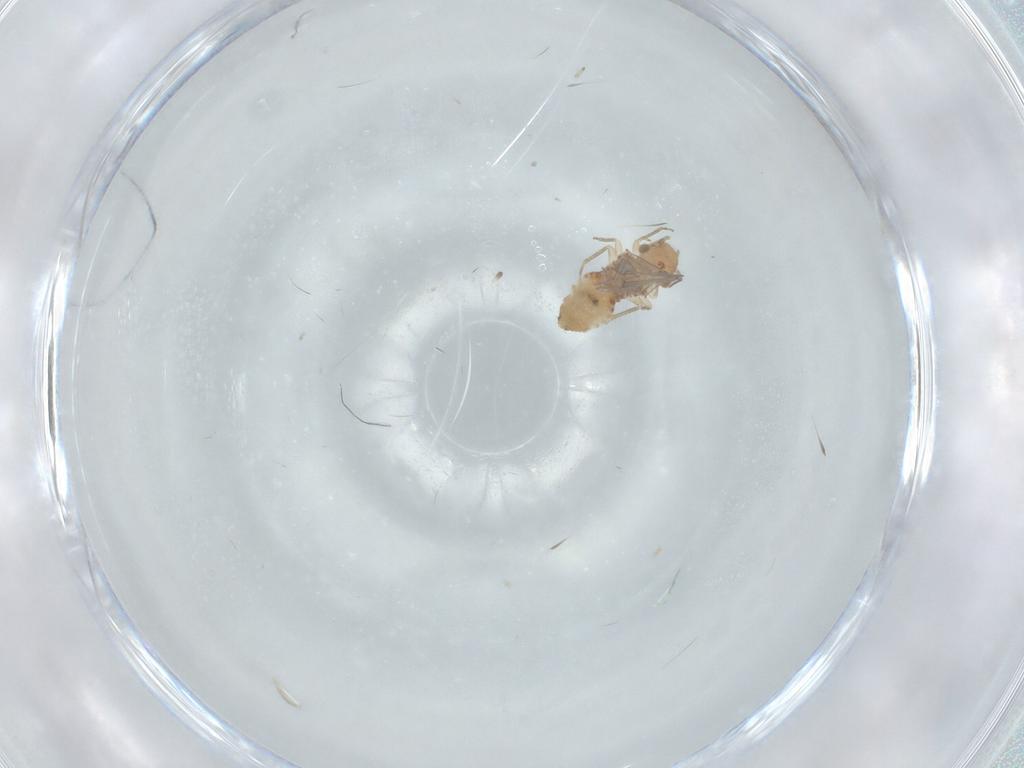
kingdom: Animalia
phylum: Arthropoda
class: Insecta
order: Psocodea
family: Ectopsocidae
